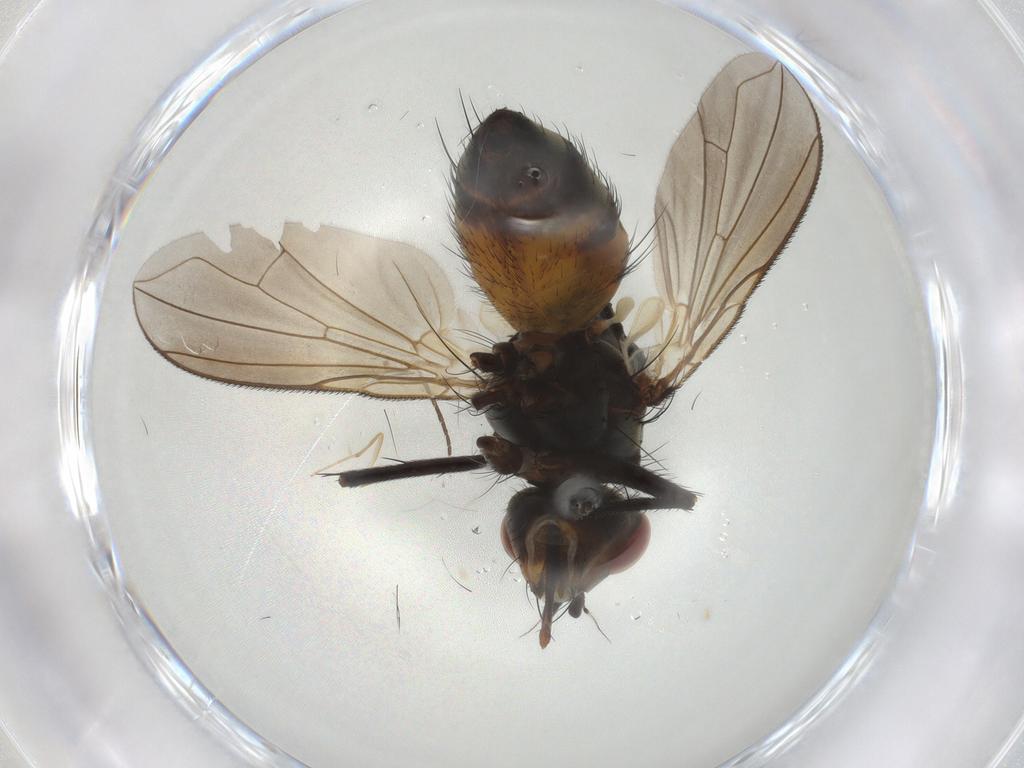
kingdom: Animalia
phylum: Arthropoda
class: Insecta
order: Diptera
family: Tachinidae
